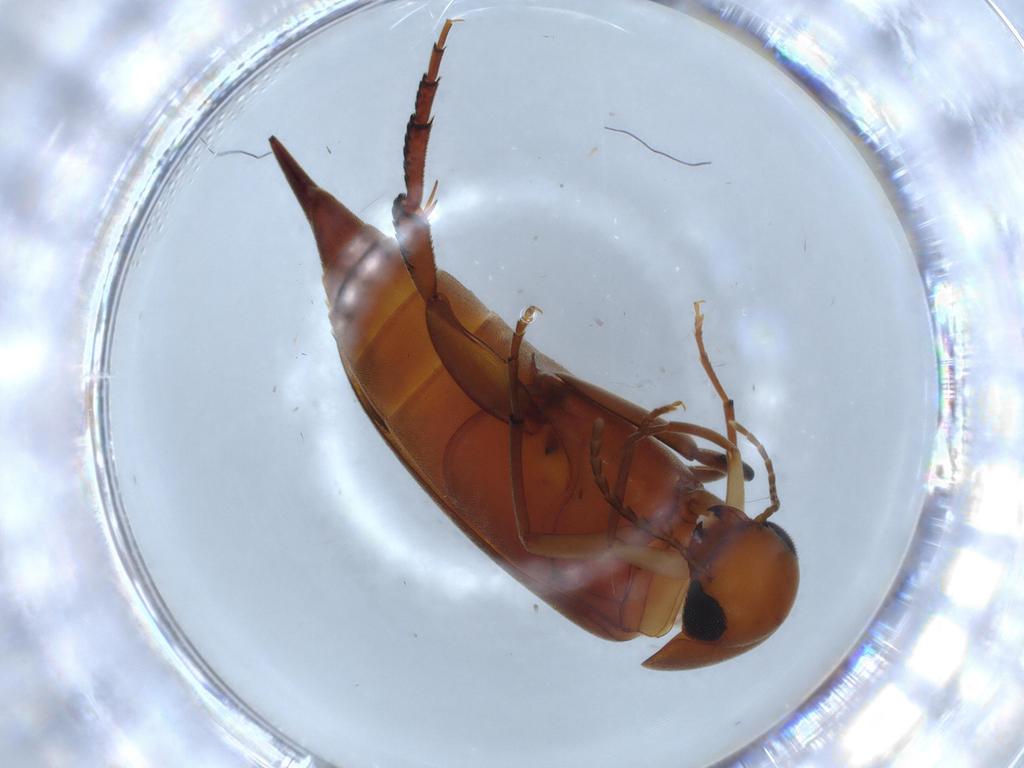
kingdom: Animalia
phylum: Arthropoda
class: Insecta
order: Coleoptera
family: Mordellidae
